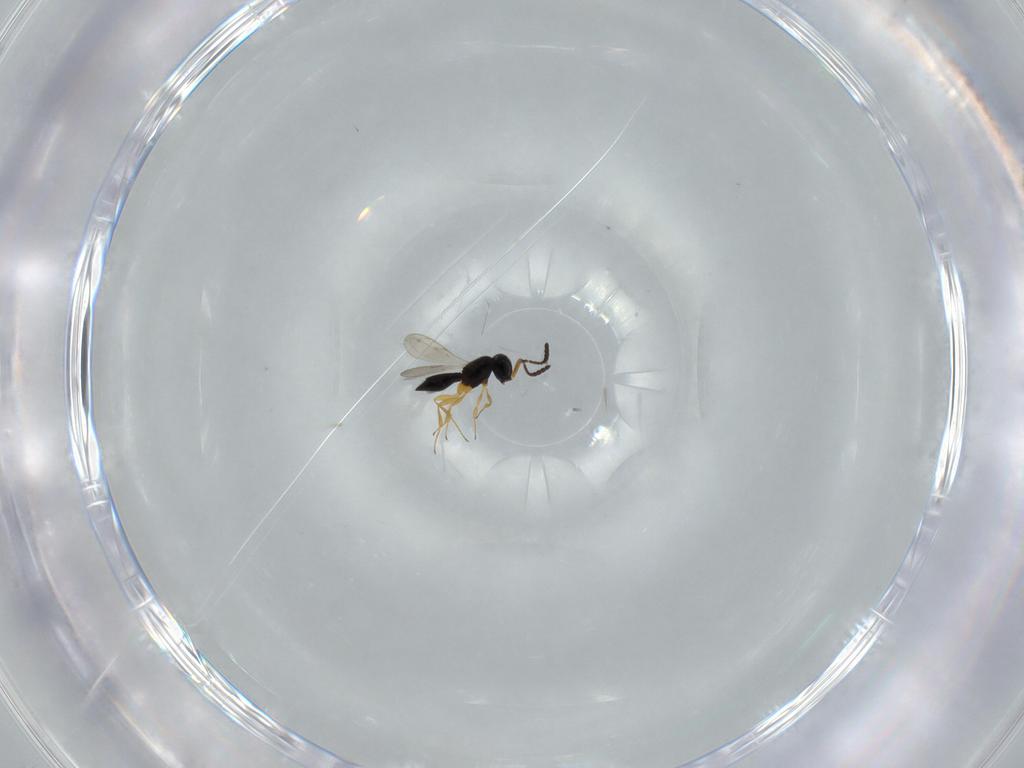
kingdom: Animalia
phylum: Arthropoda
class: Insecta
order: Hymenoptera
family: Scelionidae
